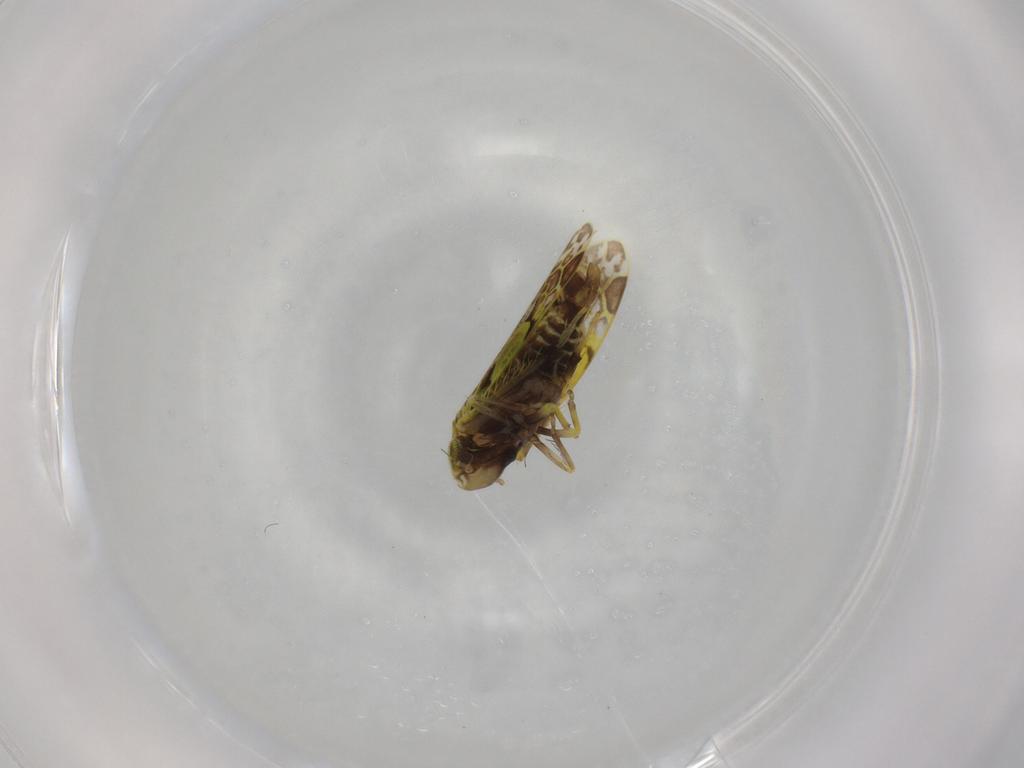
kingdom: Animalia
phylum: Arthropoda
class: Insecta
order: Hemiptera
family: Cicadellidae
